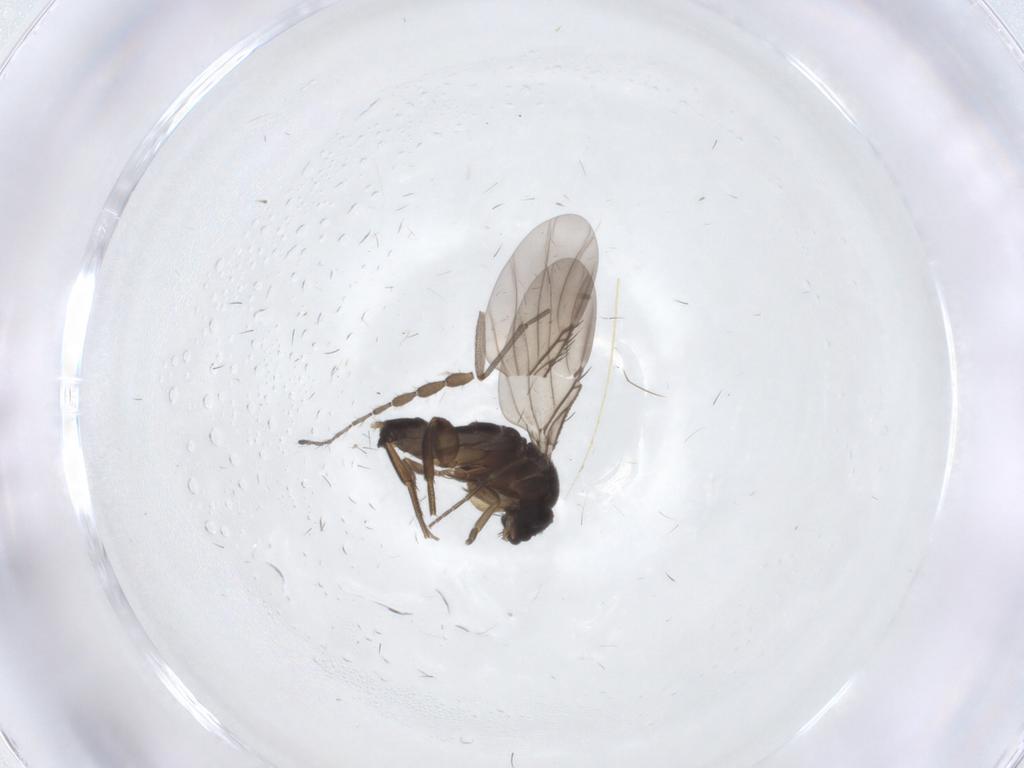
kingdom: Animalia
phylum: Arthropoda
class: Insecta
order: Diptera
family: Phoridae
